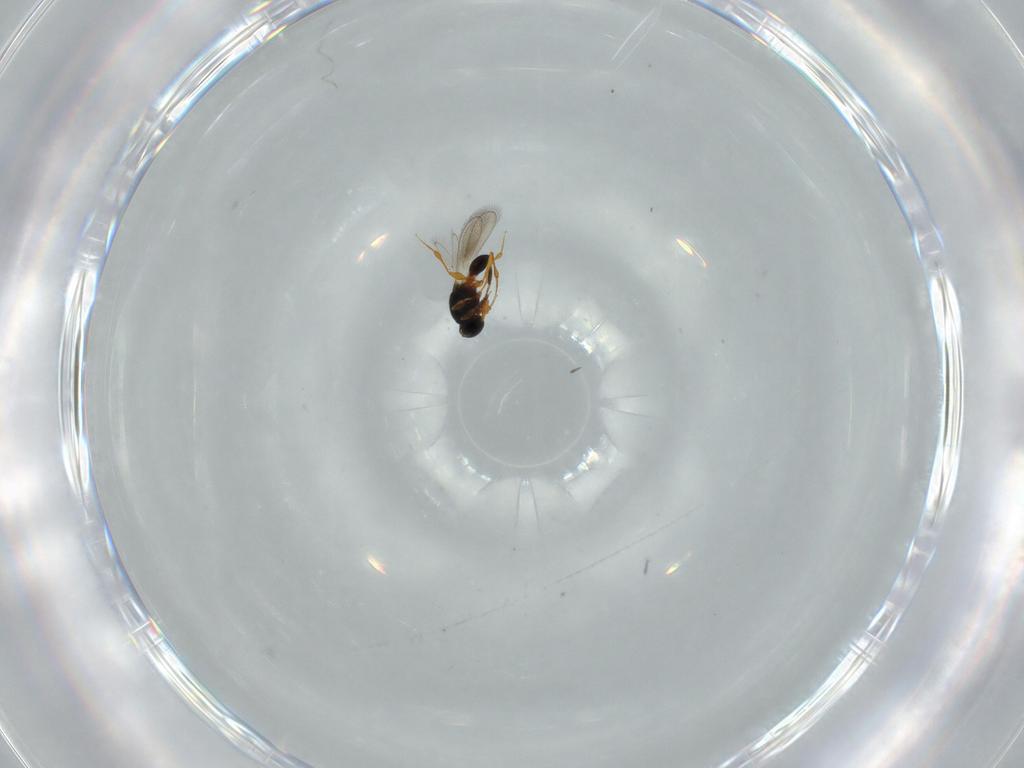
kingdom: Animalia
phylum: Arthropoda
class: Insecta
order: Hymenoptera
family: Platygastridae
